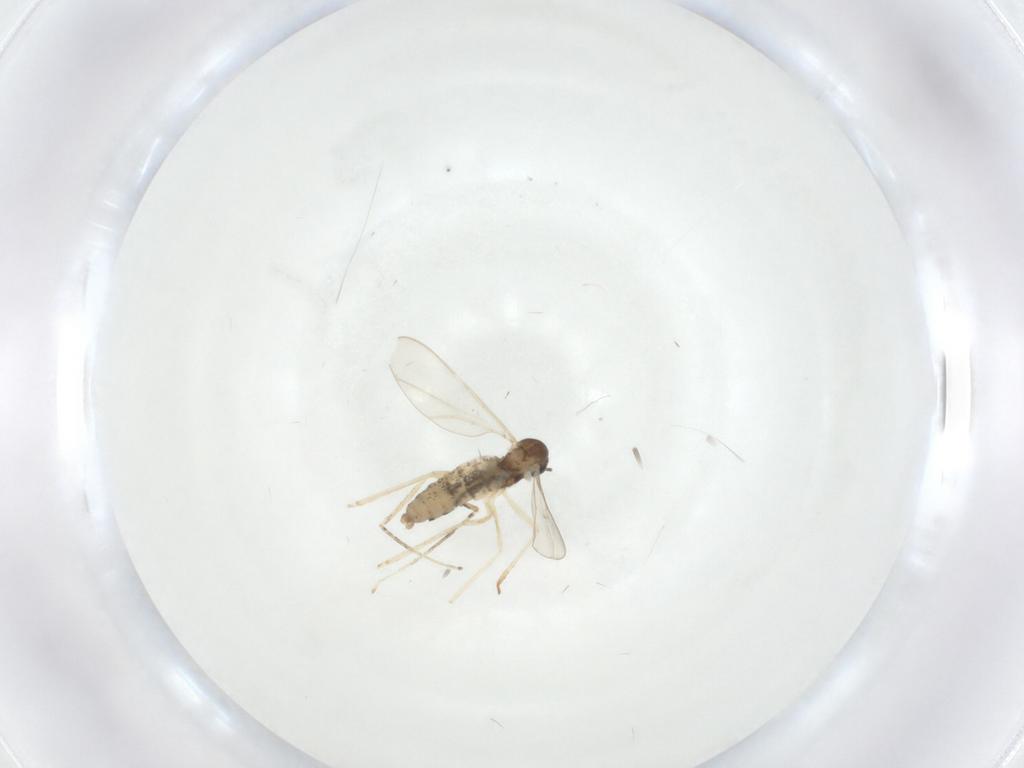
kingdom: Animalia
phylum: Arthropoda
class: Insecta
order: Diptera
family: Cecidomyiidae
